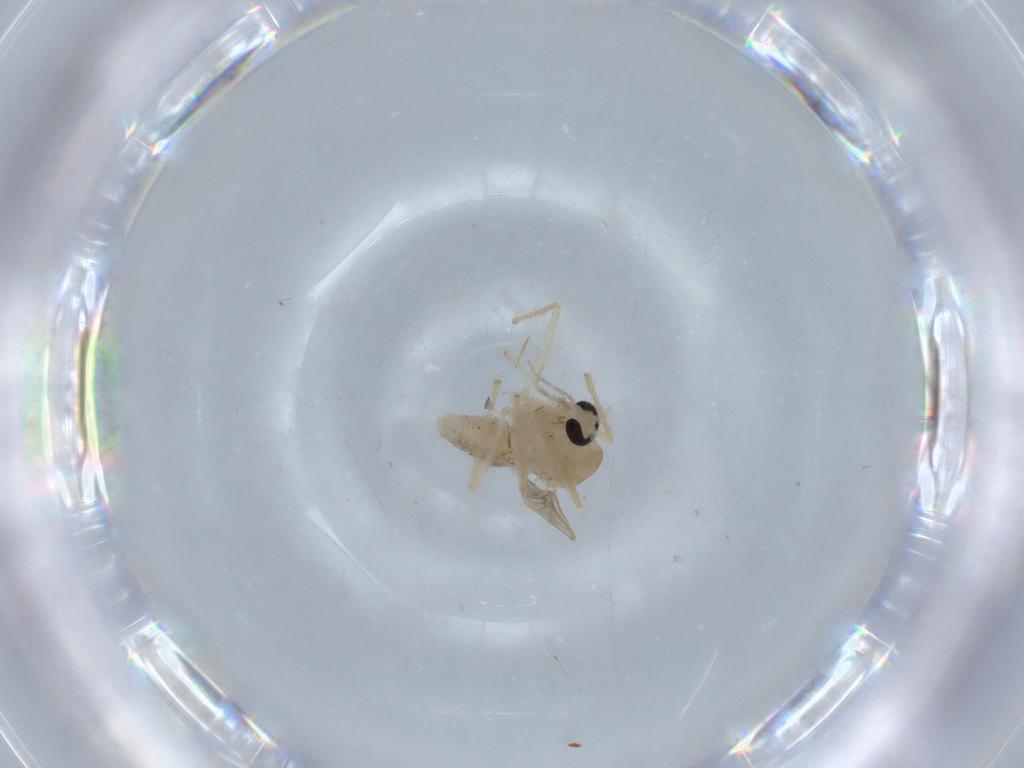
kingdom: Animalia
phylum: Arthropoda
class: Insecta
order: Diptera
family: Chironomidae
